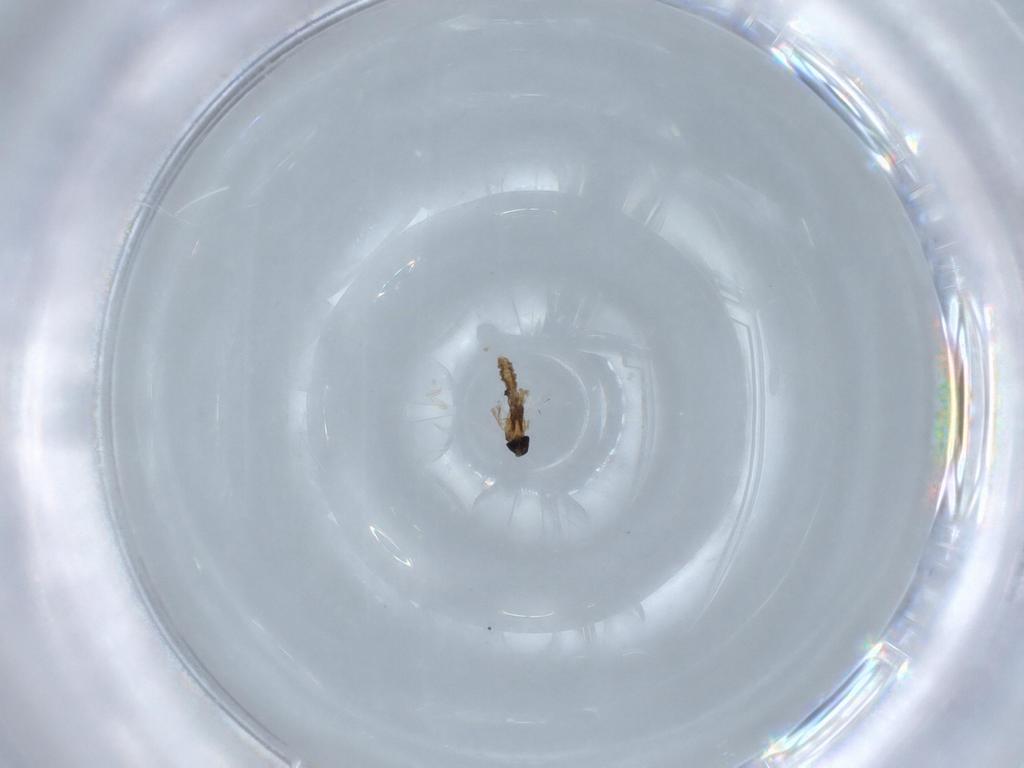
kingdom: Animalia
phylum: Arthropoda
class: Insecta
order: Diptera
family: Cecidomyiidae
